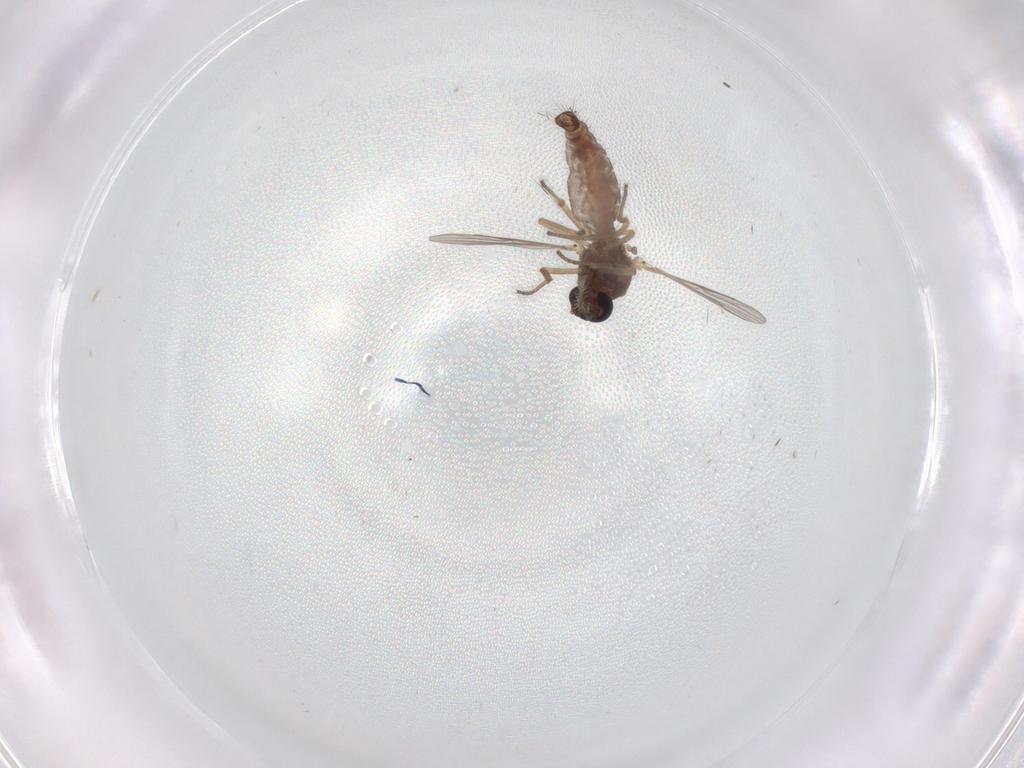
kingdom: Animalia
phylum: Arthropoda
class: Insecta
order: Diptera
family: Ceratopogonidae
